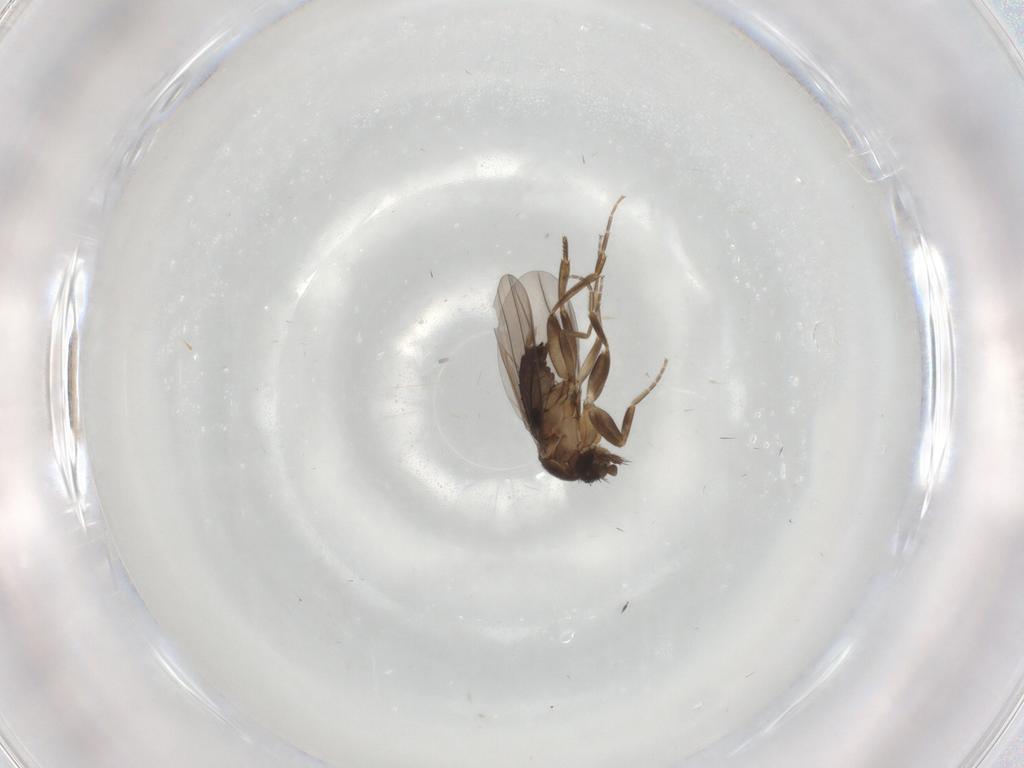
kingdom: Animalia
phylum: Arthropoda
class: Insecta
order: Diptera
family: Phoridae
